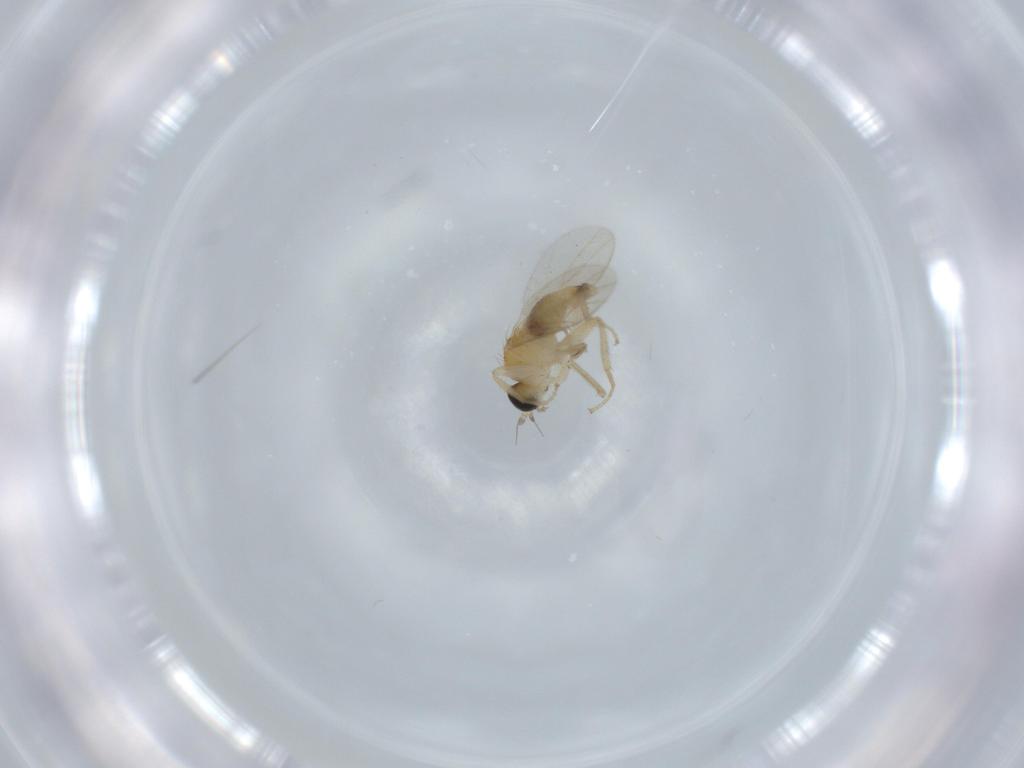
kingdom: Animalia
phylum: Arthropoda
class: Insecta
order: Diptera
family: Hybotidae
